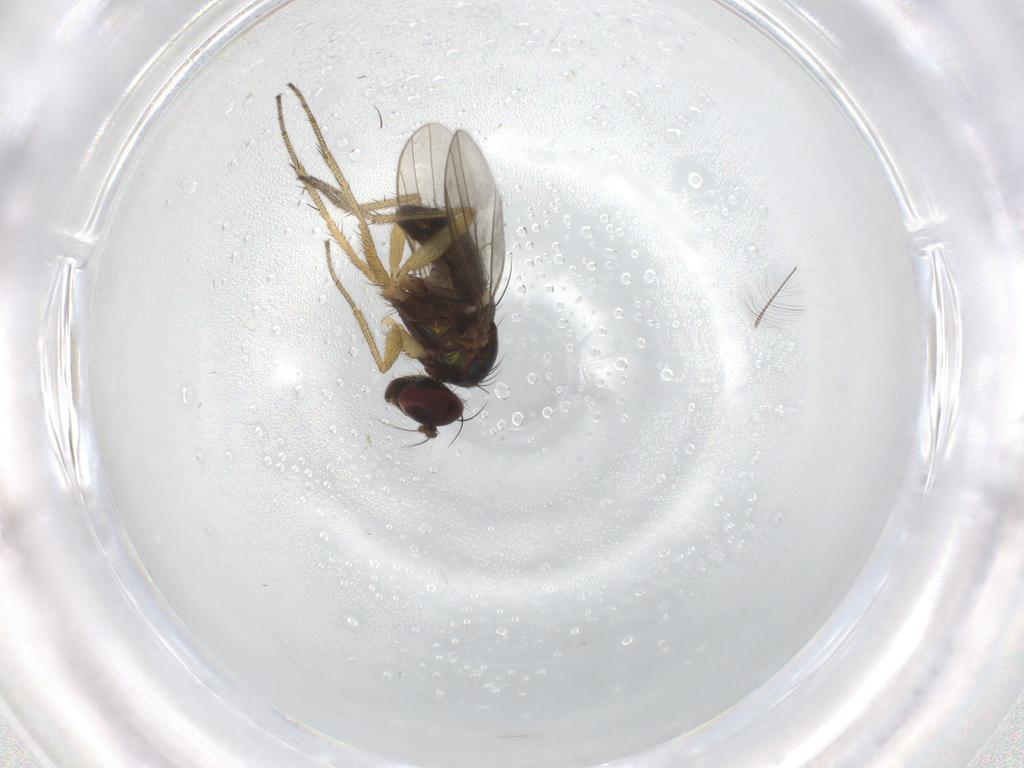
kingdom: Animalia
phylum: Arthropoda
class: Insecta
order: Diptera
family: Chironomidae
